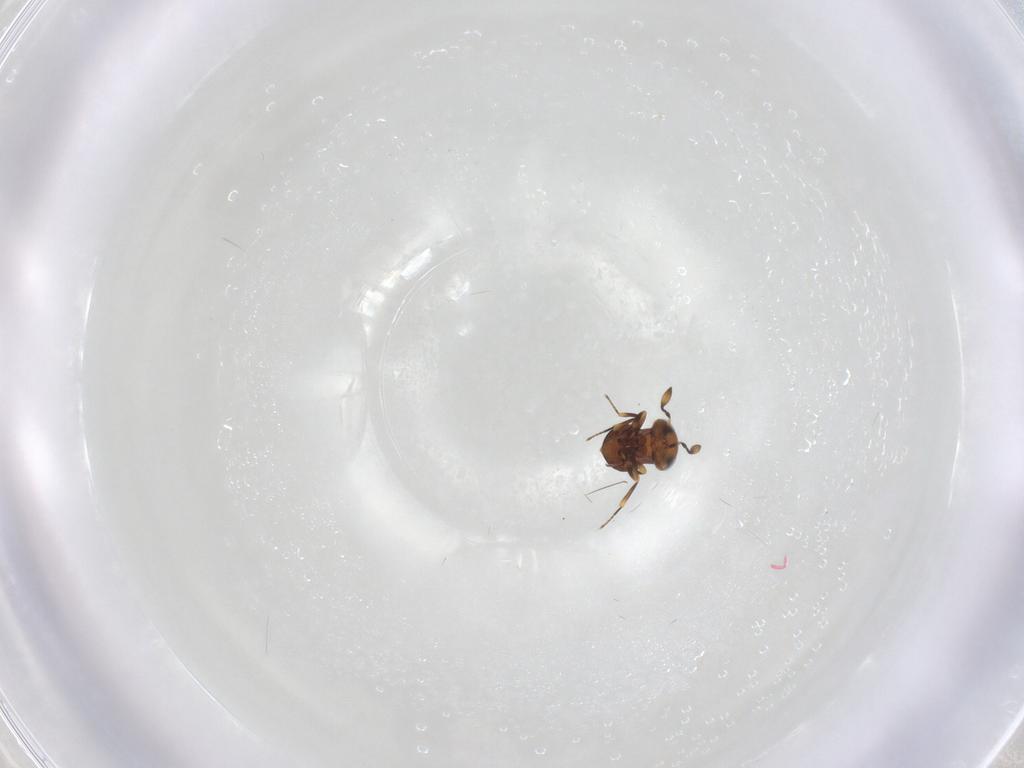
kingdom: Animalia
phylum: Arthropoda
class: Insecta
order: Hymenoptera
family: Scelionidae
